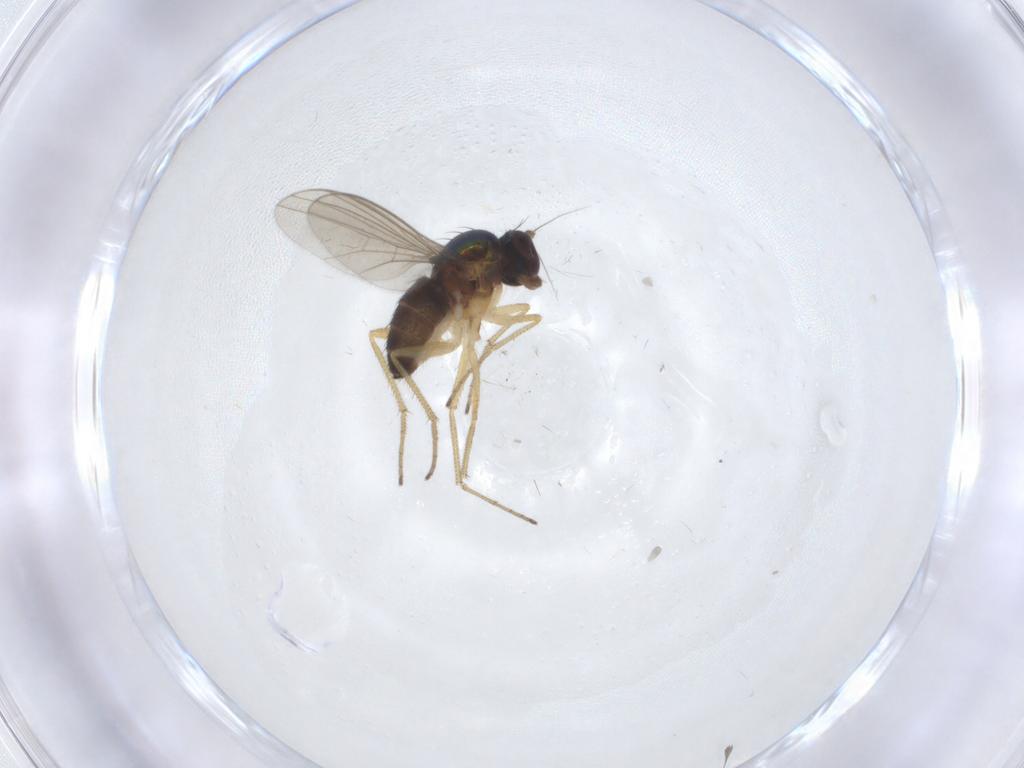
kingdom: Animalia
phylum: Arthropoda
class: Insecta
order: Diptera
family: Dolichopodidae
